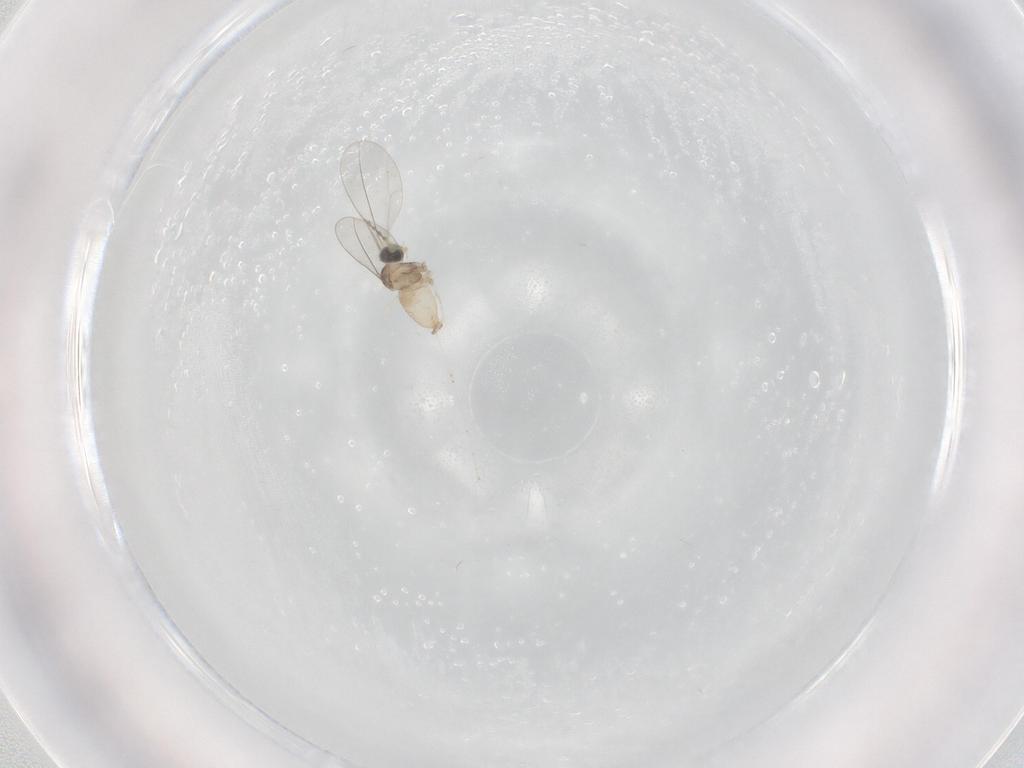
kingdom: Animalia
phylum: Arthropoda
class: Insecta
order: Diptera
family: Cecidomyiidae
